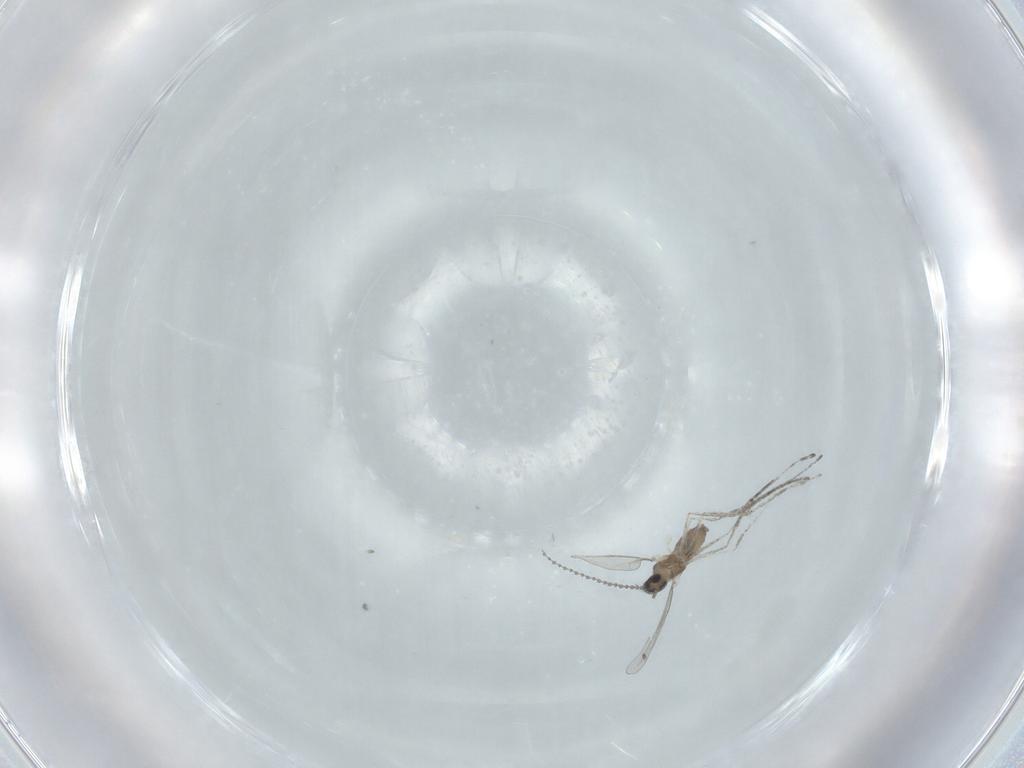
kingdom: Animalia
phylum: Arthropoda
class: Insecta
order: Diptera
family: Cecidomyiidae
